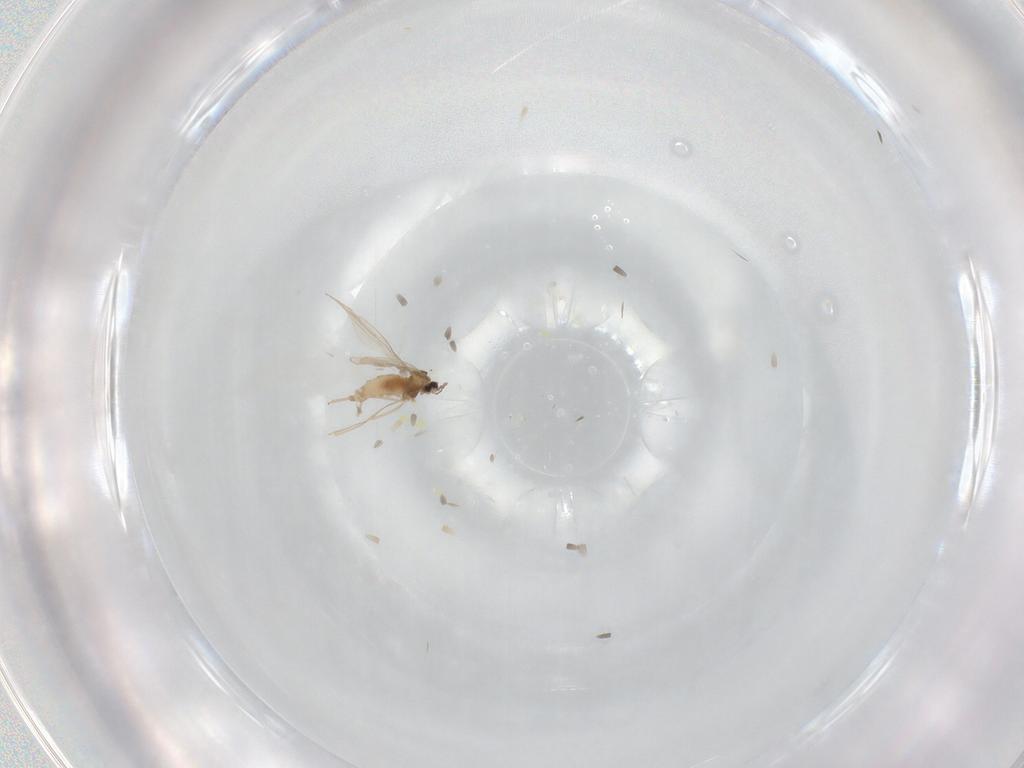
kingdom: Animalia
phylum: Arthropoda
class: Insecta
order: Diptera
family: Cecidomyiidae
